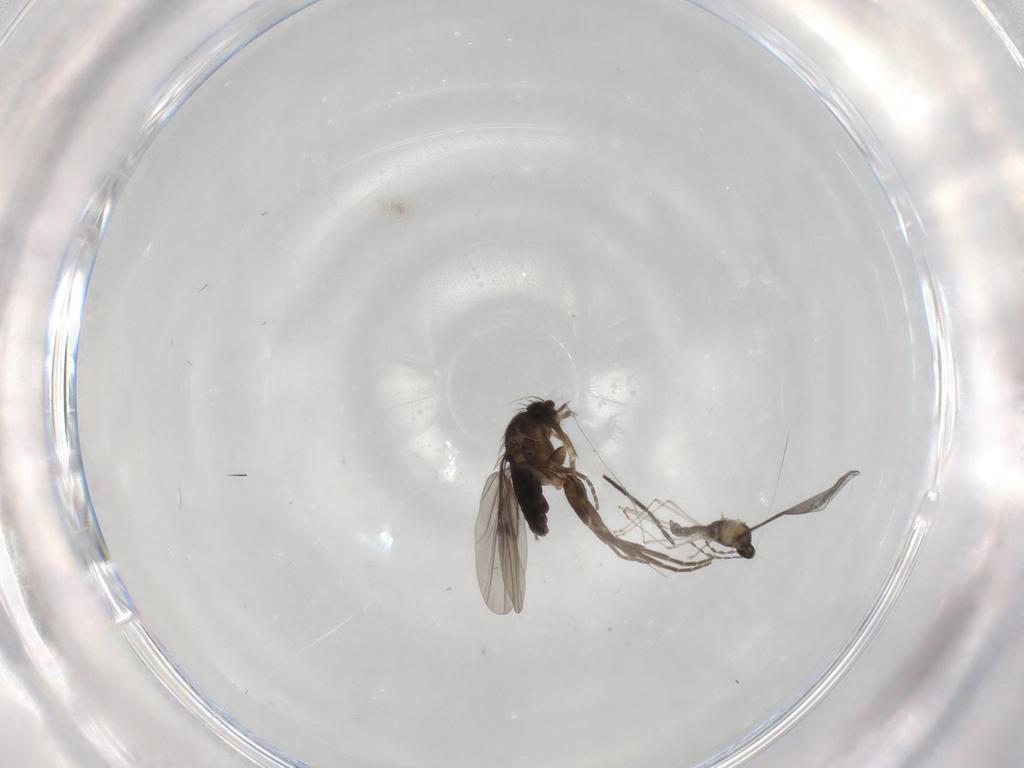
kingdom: Animalia
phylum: Arthropoda
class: Insecta
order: Diptera
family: Phoridae
